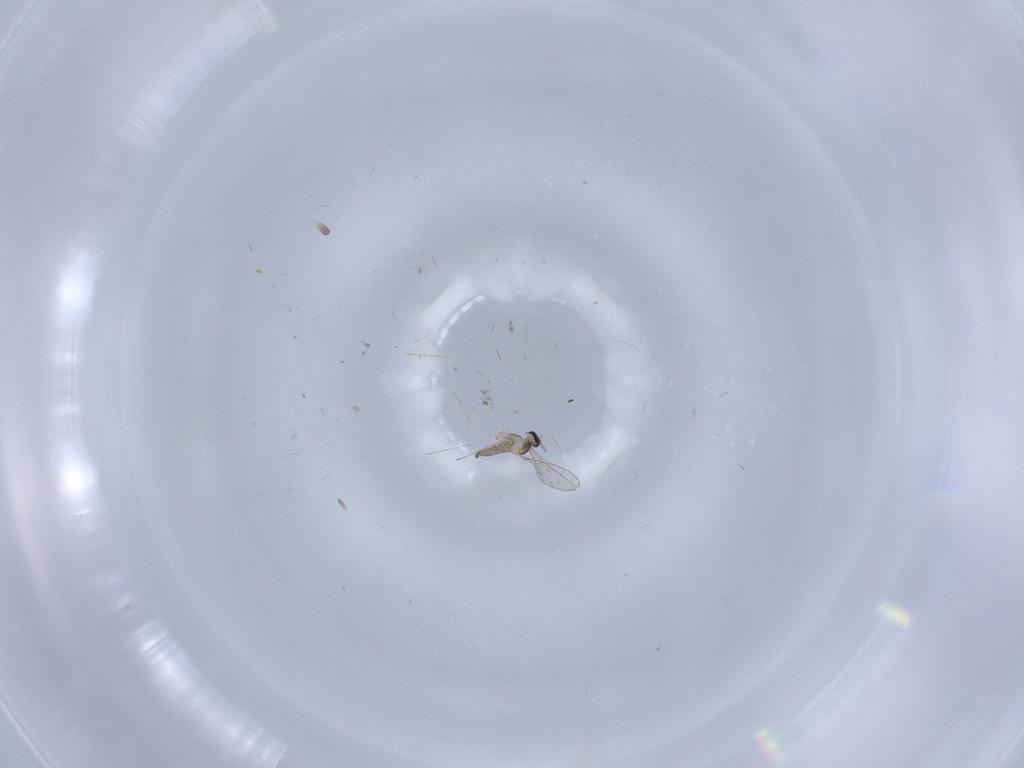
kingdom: Animalia
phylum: Arthropoda
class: Insecta
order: Diptera
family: Cecidomyiidae
